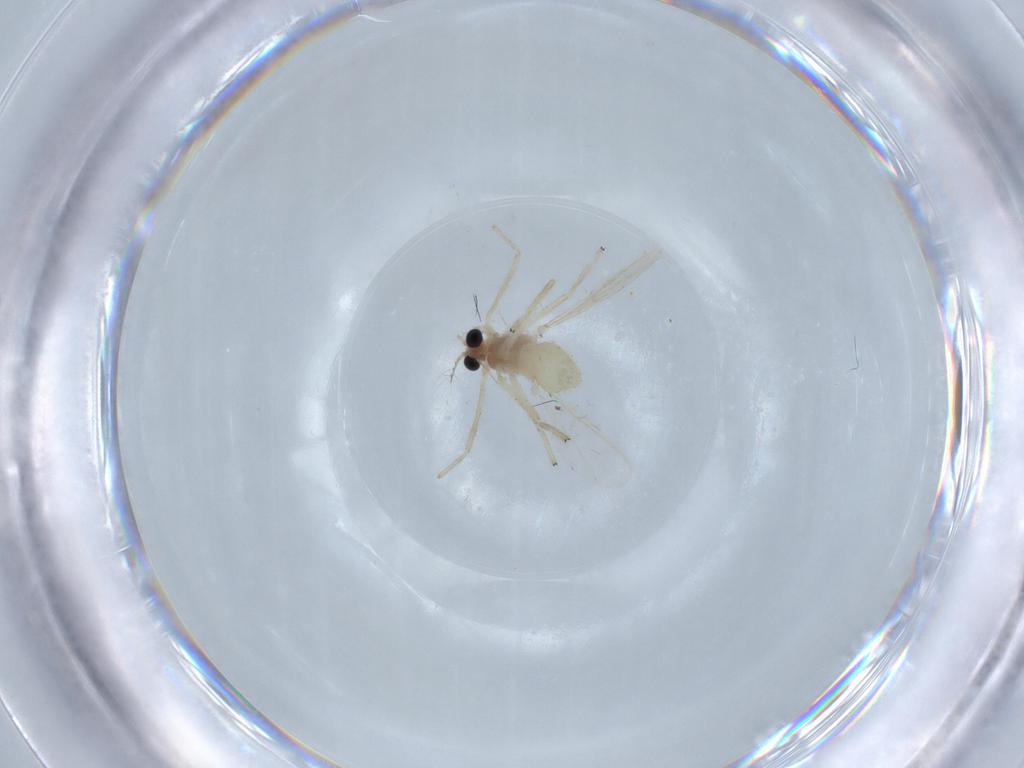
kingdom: Animalia
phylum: Arthropoda
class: Insecta
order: Diptera
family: Chironomidae
